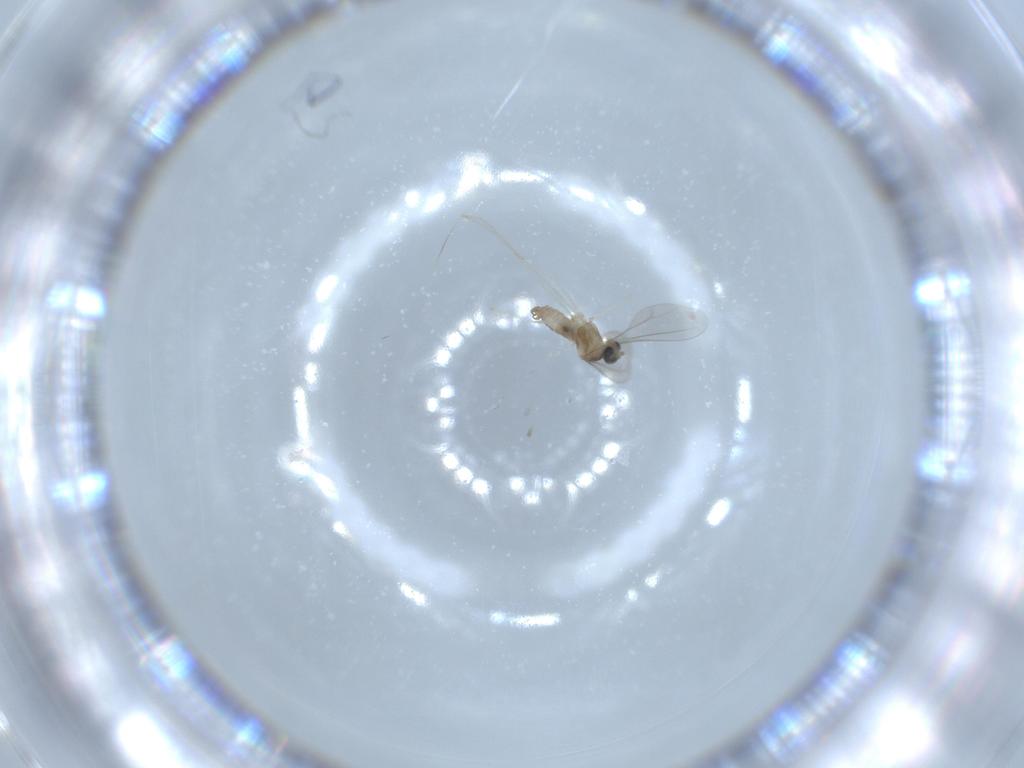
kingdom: Animalia
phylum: Arthropoda
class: Insecta
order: Diptera
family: Cecidomyiidae
